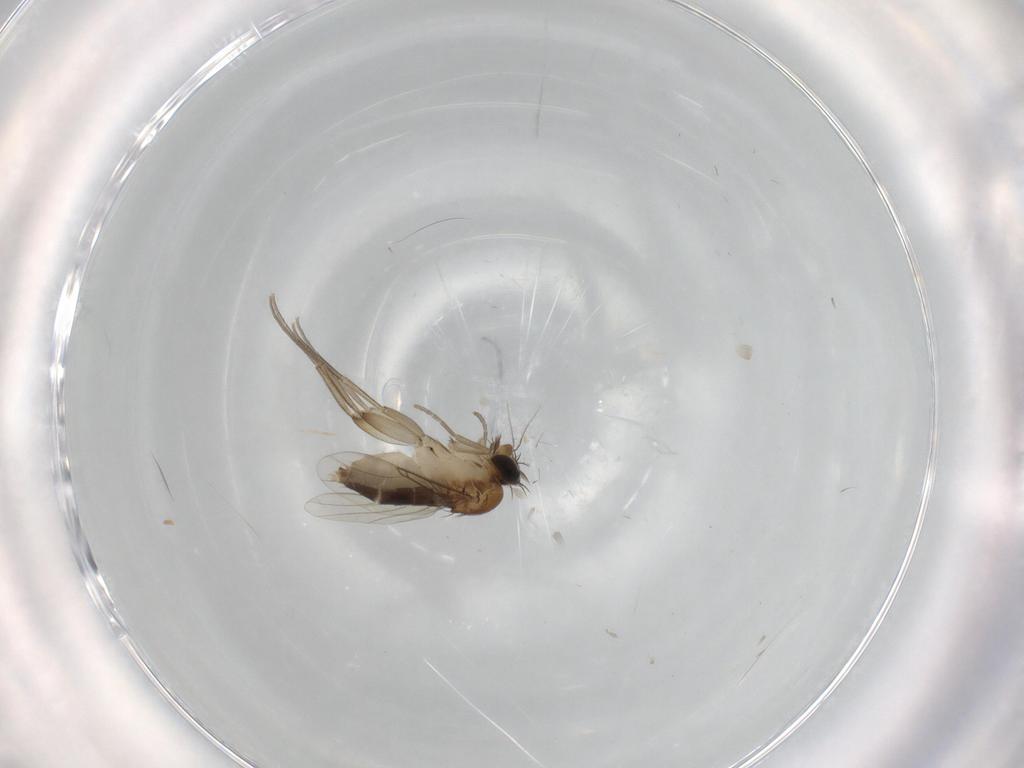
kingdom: Animalia
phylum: Arthropoda
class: Insecta
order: Diptera
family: Phoridae
